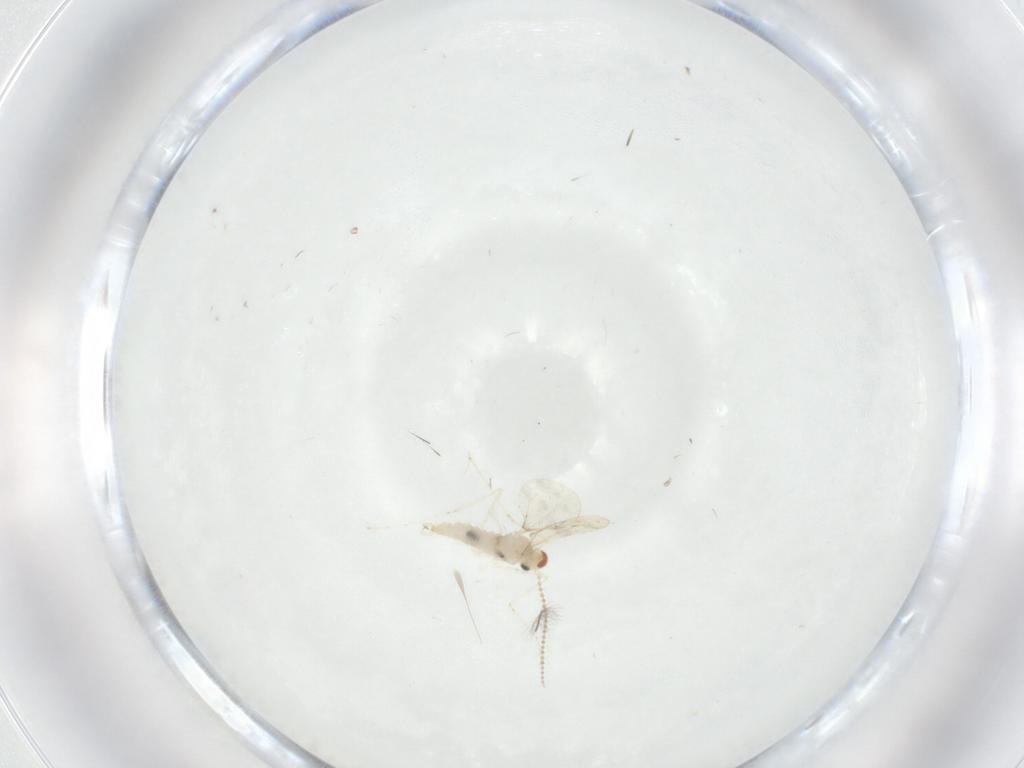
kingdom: Animalia
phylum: Arthropoda
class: Insecta
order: Diptera
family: Cecidomyiidae
